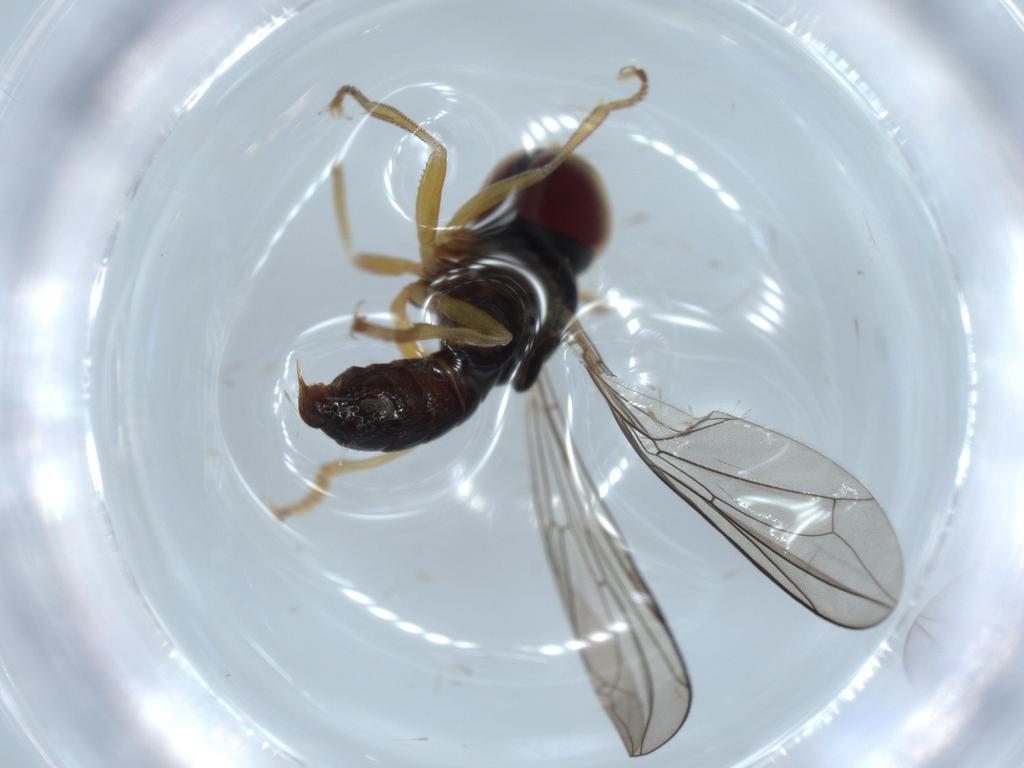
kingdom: Animalia
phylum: Arthropoda
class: Insecta
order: Diptera
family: Pipunculidae
